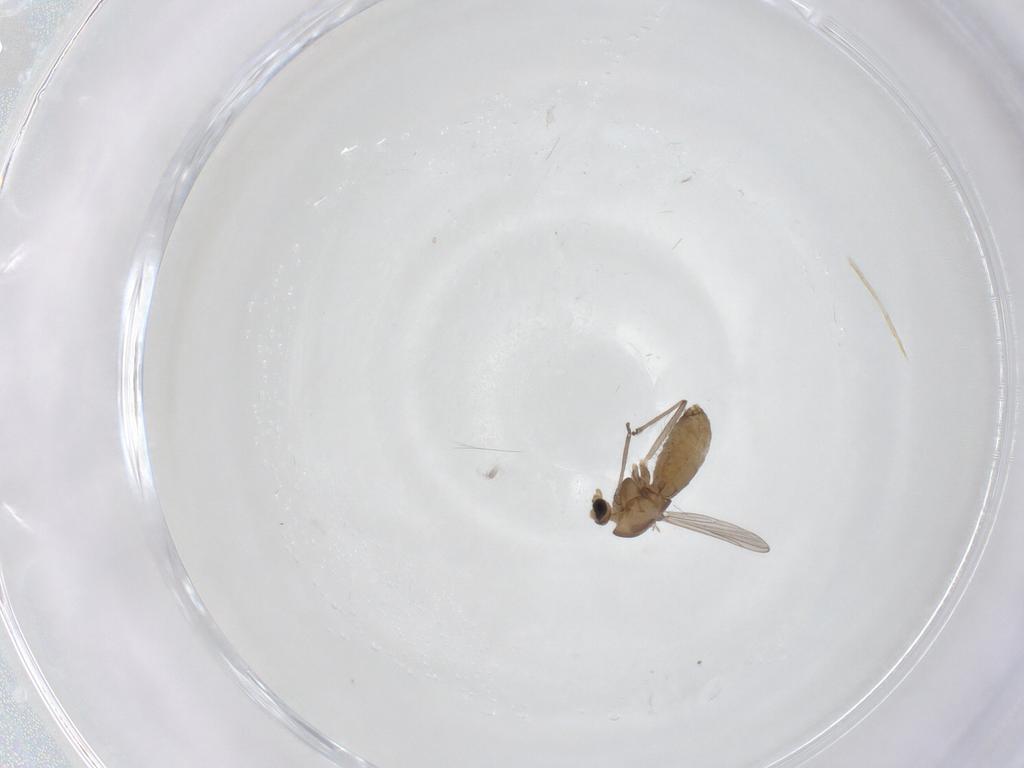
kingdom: Animalia
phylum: Arthropoda
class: Insecta
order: Diptera
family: Chironomidae
